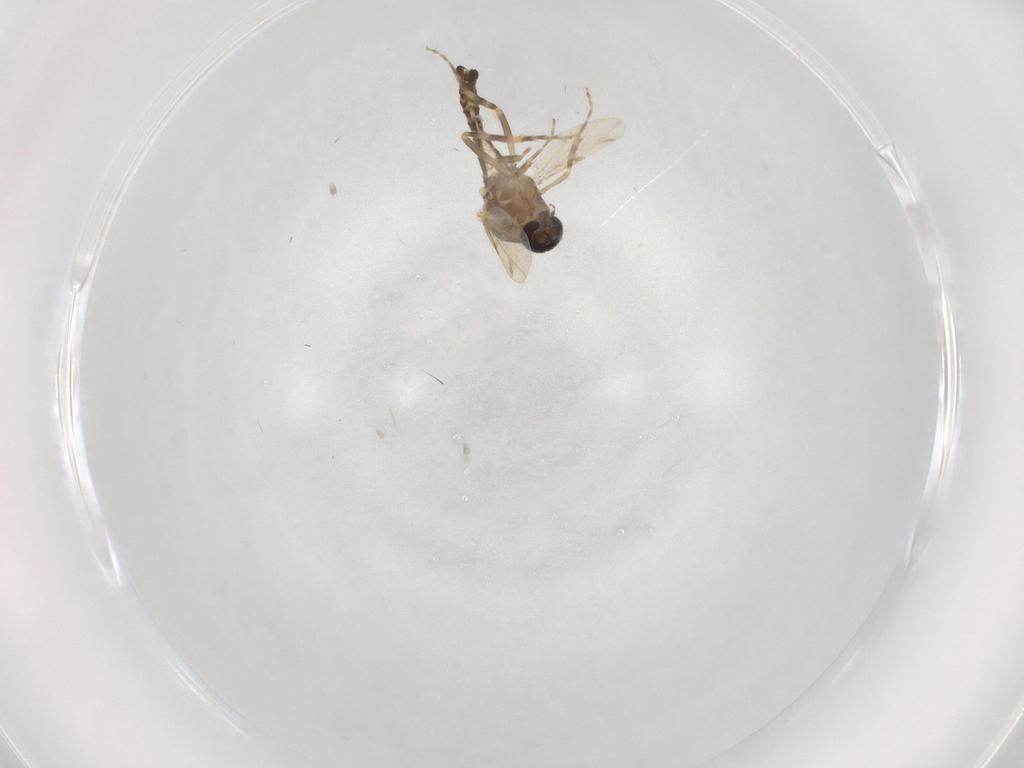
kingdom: Animalia
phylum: Arthropoda
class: Insecta
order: Diptera
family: Ceratopogonidae
